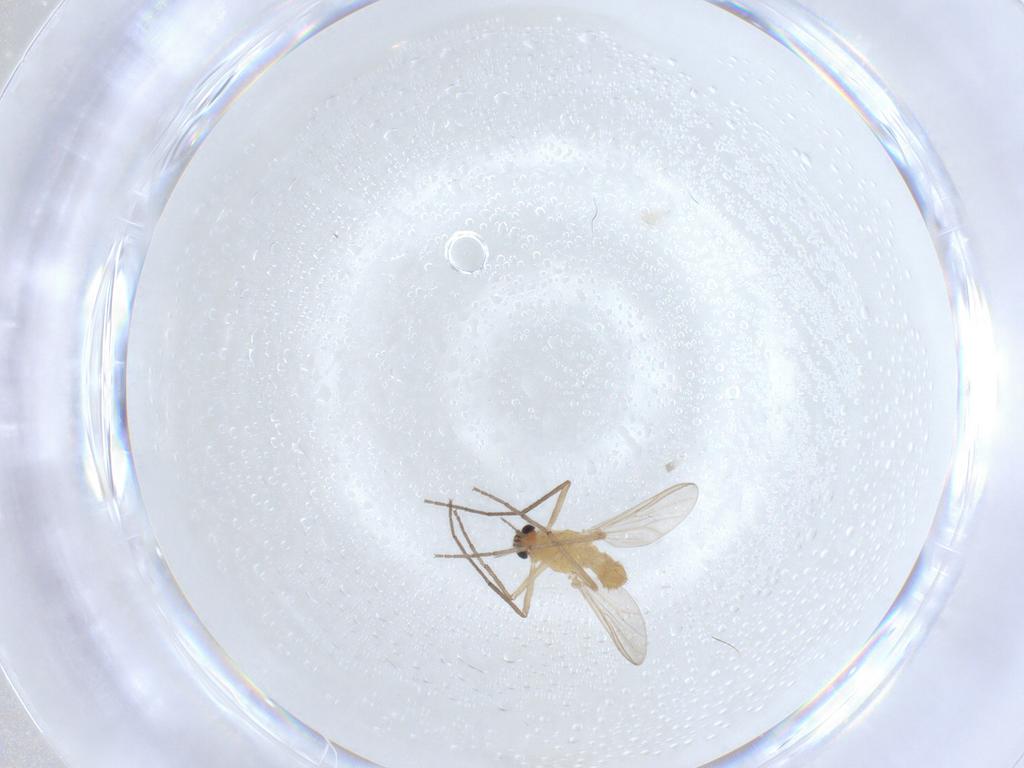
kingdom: Animalia
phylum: Arthropoda
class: Insecta
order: Diptera
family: Chironomidae
